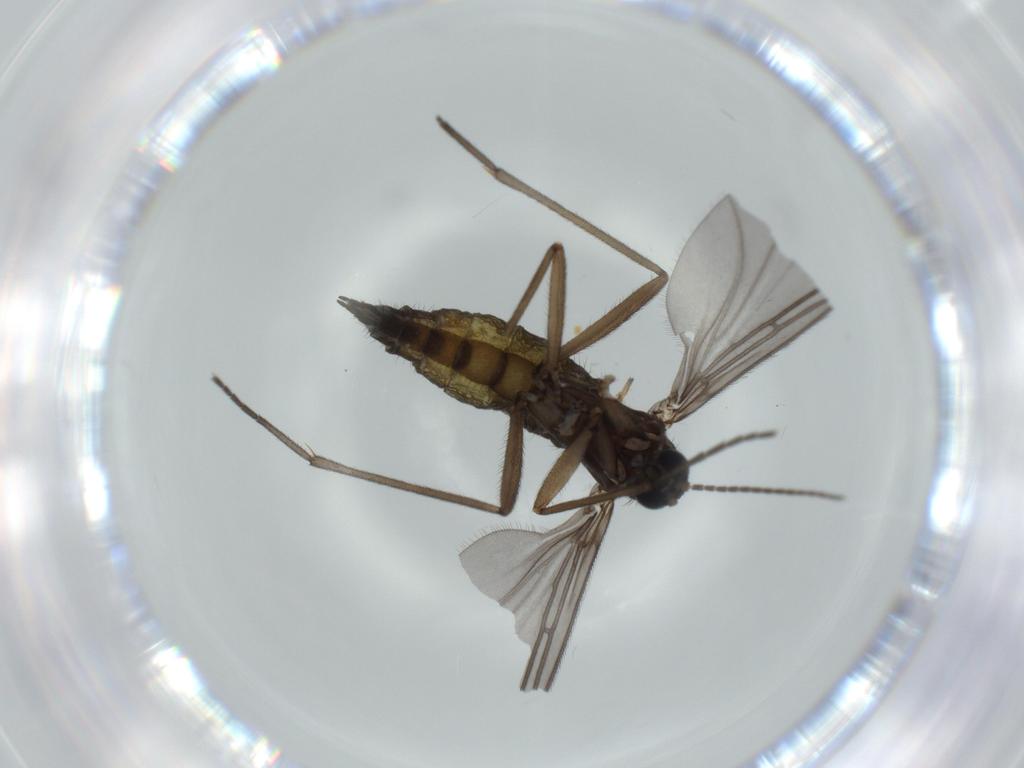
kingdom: Animalia
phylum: Arthropoda
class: Insecta
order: Diptera
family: Sciaridae
